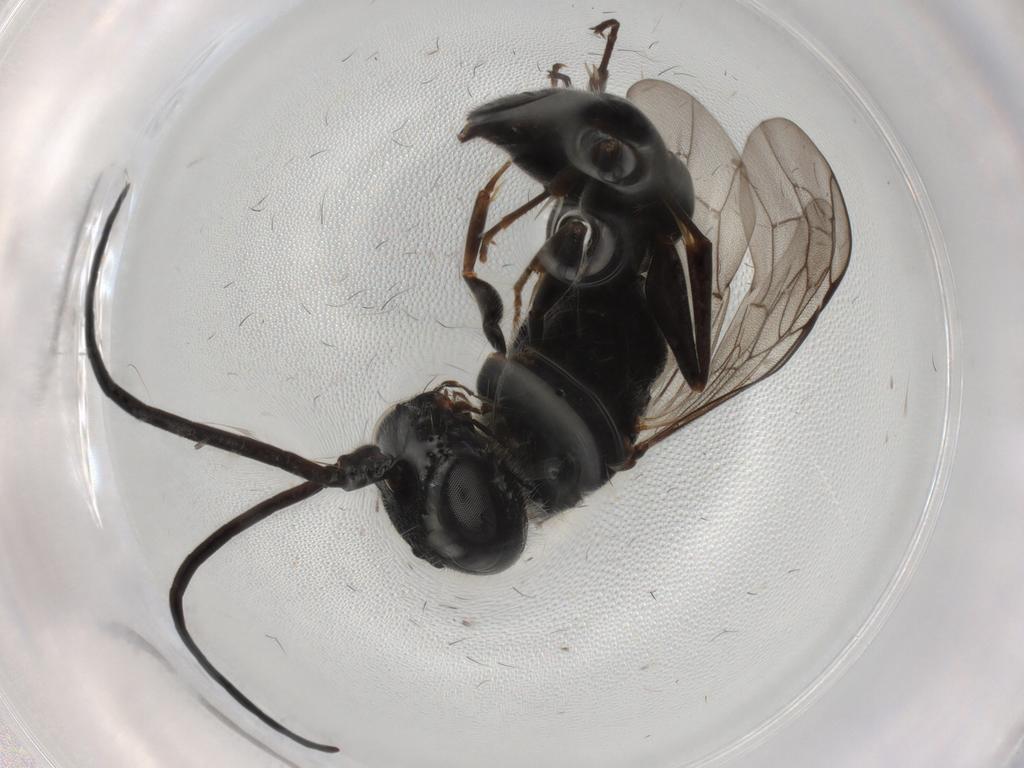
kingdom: Animalia
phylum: Arthropoda
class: Insecta
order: Hymenoptera
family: Ampulicidae
